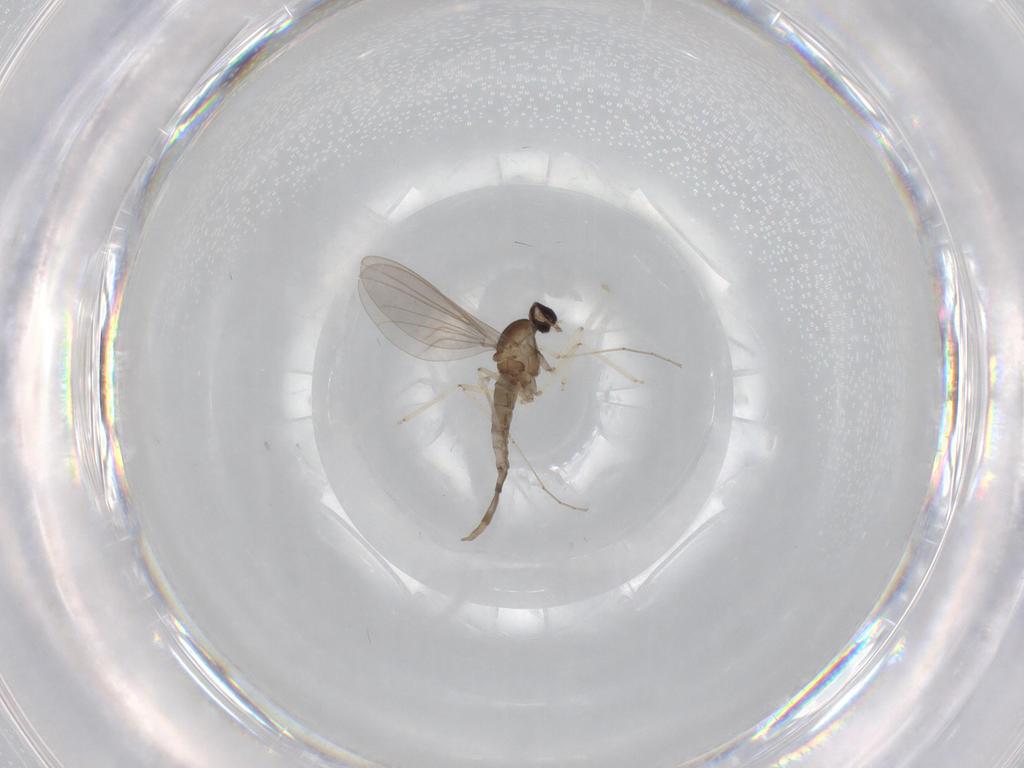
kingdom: Animalia
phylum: Arthropoda
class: Insecta
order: Diptera
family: Cecidomyiidae
